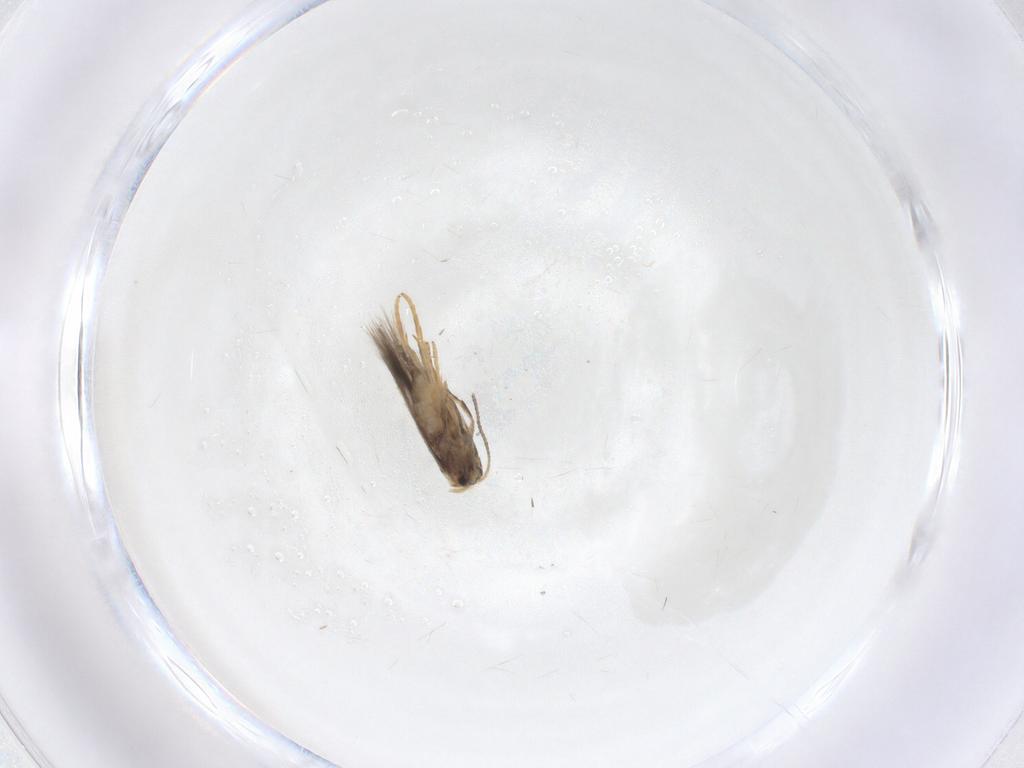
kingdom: Animalia
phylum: Arthropoda
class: Insecta
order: Lepidoptera
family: Nepticulidae
